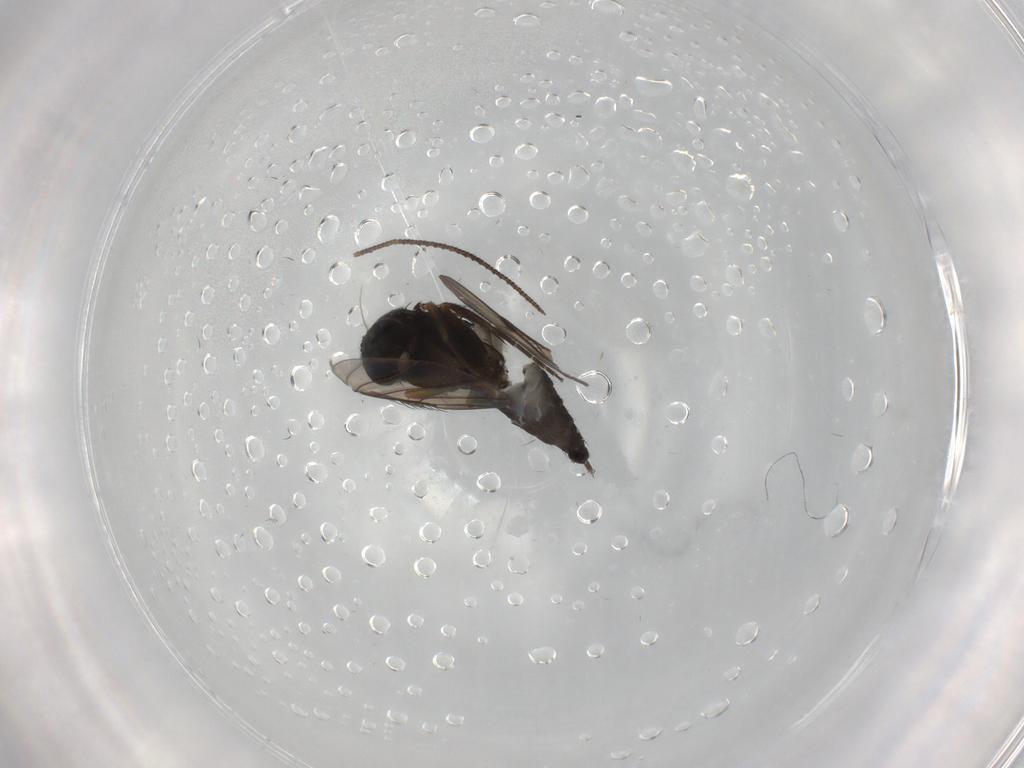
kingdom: Animalia
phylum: Arthropoda
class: Insecta
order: Diptera
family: Phoridae
